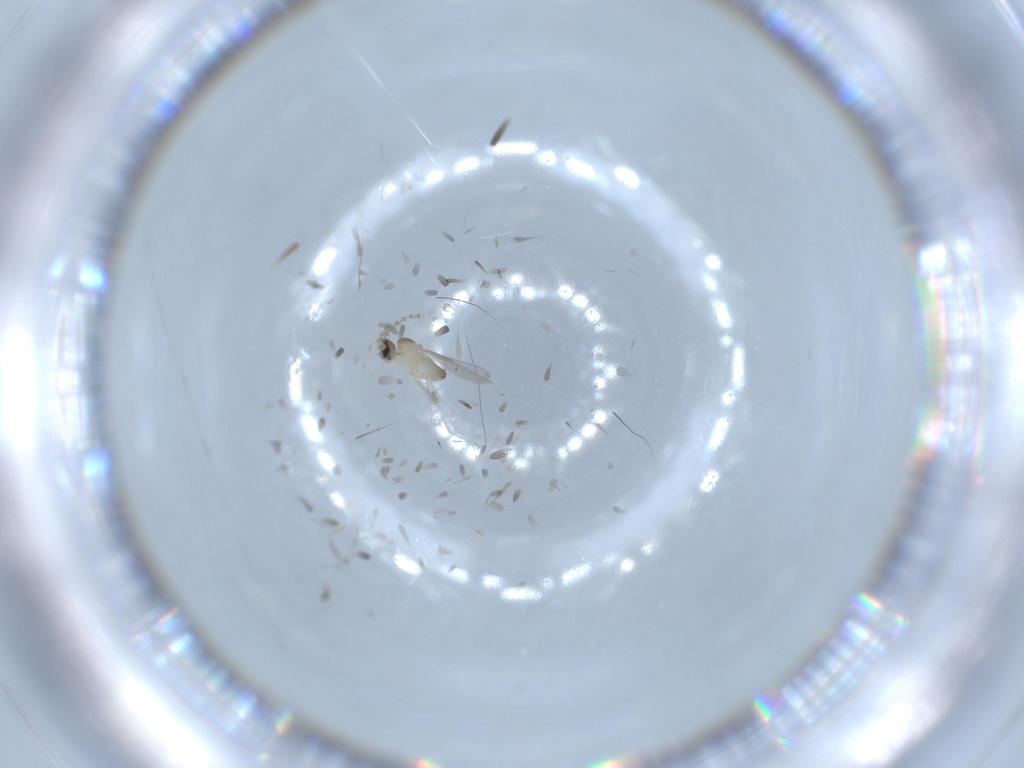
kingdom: Animalia
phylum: Arthropoda
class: Insecta
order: Diptera
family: Cecidomyiidae
